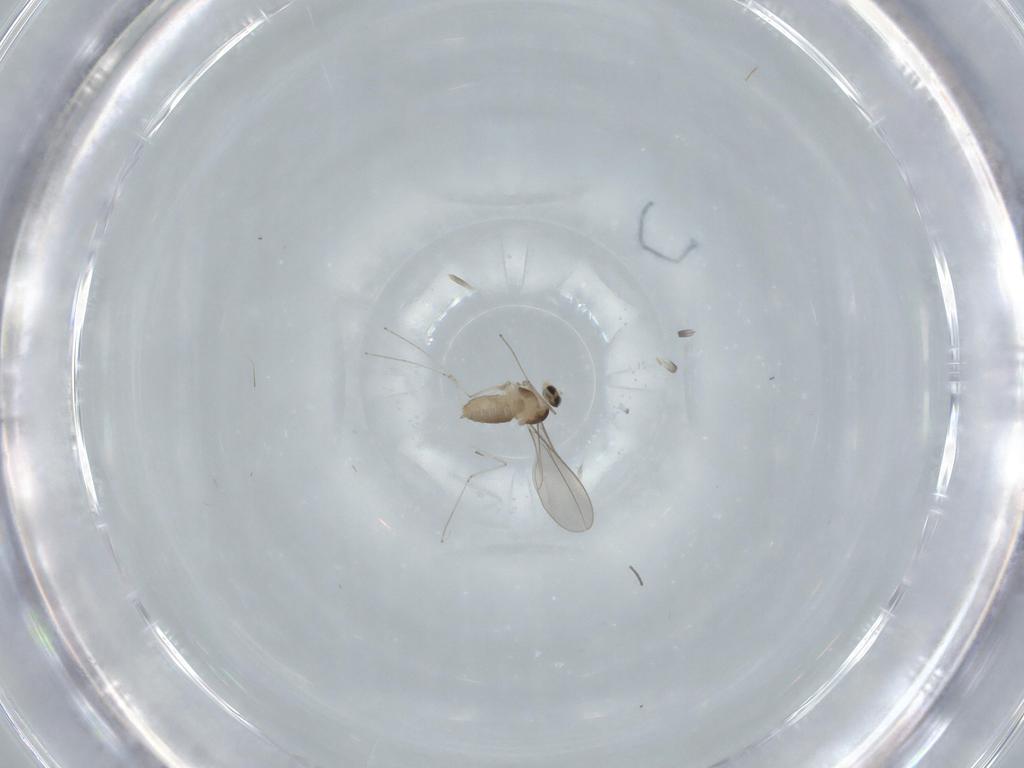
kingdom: Animalia
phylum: Arthropoda
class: Insecta
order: Diptera
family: Cecidomyiidae
